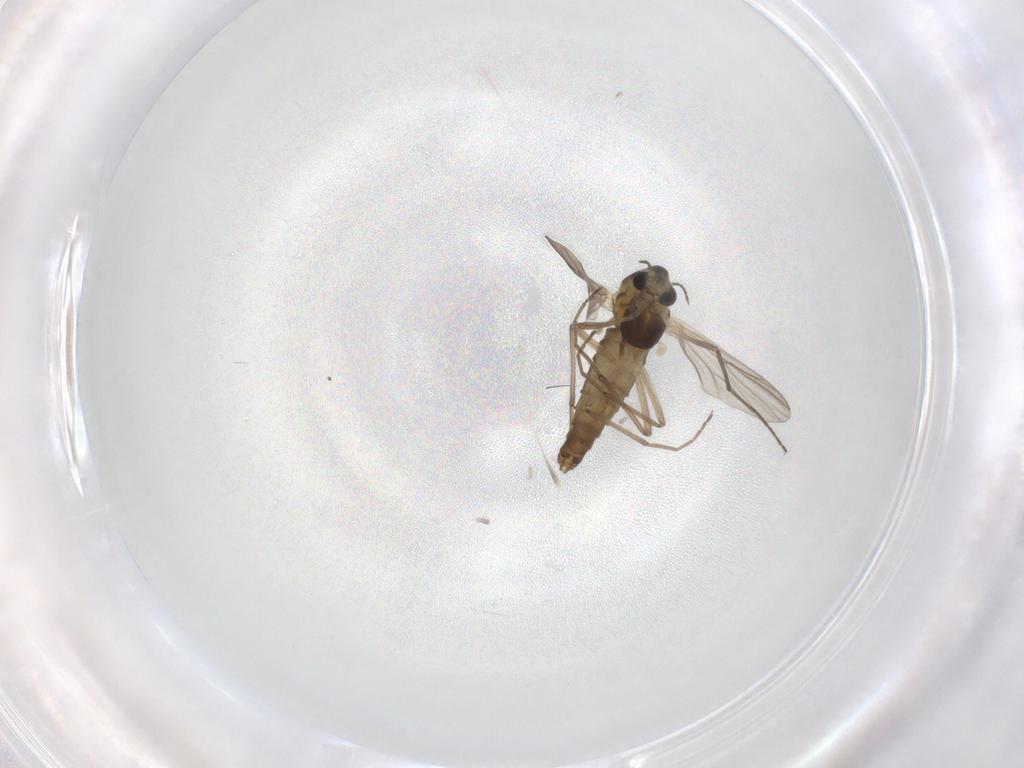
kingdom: Animalia
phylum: Arthropoda
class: Insecta
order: Diptera
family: Chironomidae
